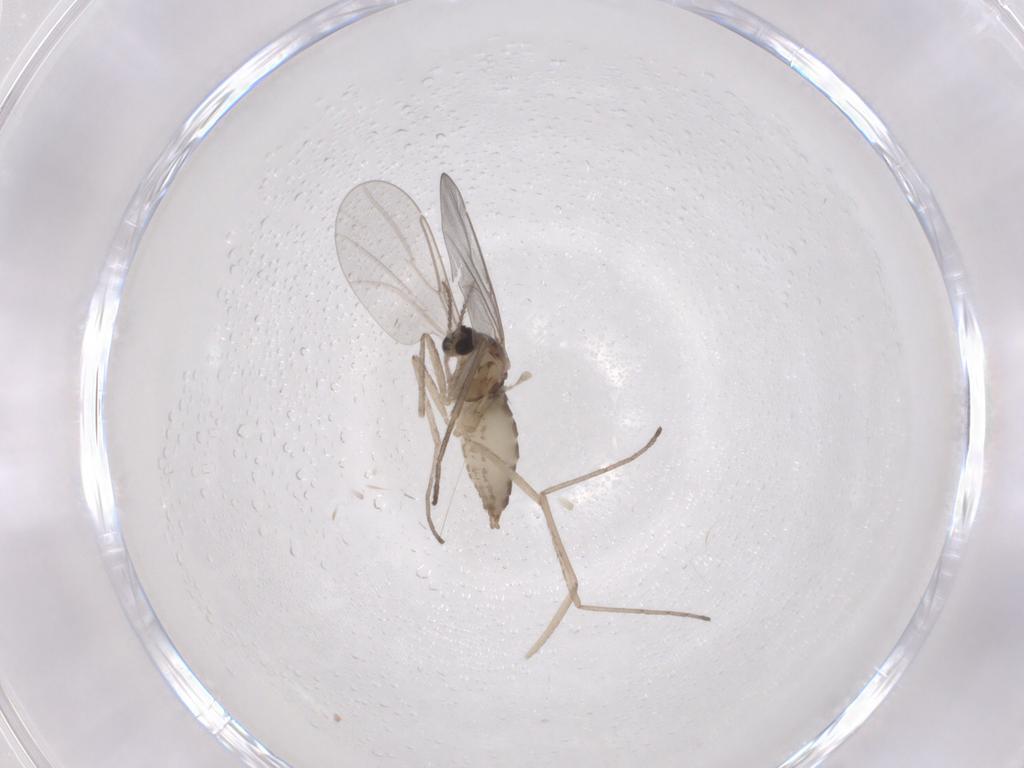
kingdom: Animalia
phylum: Arthropoda
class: Insecta
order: Diptera
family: Cecidomyiidae
